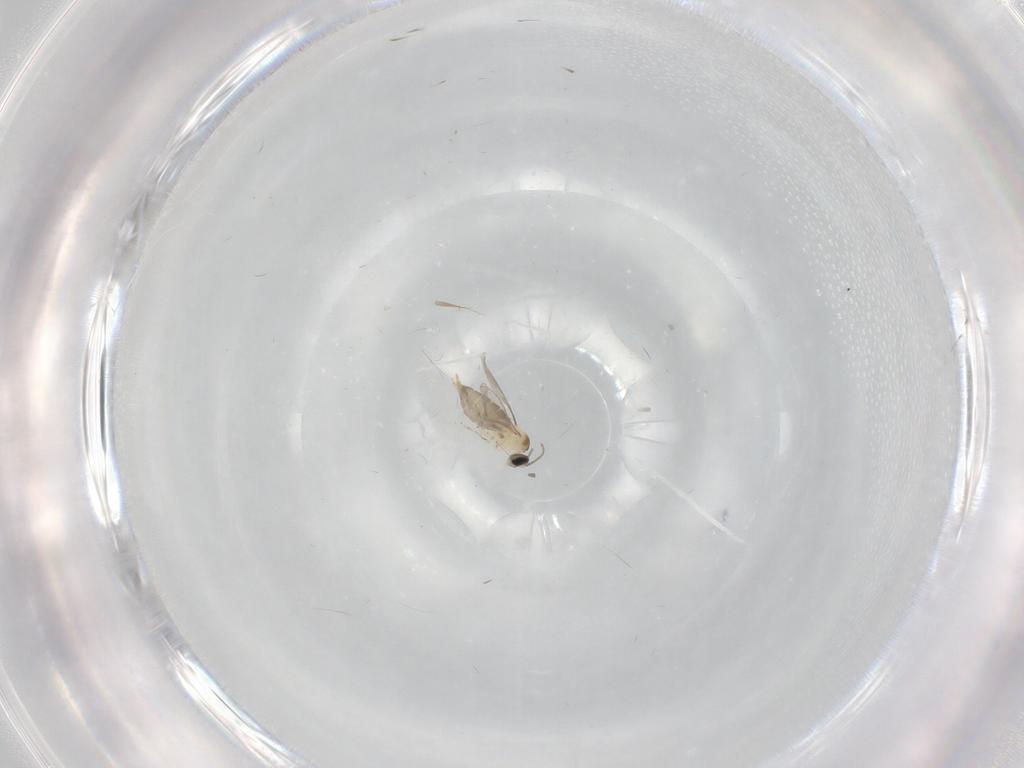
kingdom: Animalia
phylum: Arthropoda
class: Insecta
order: Diptera
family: Cecidomyiidae
